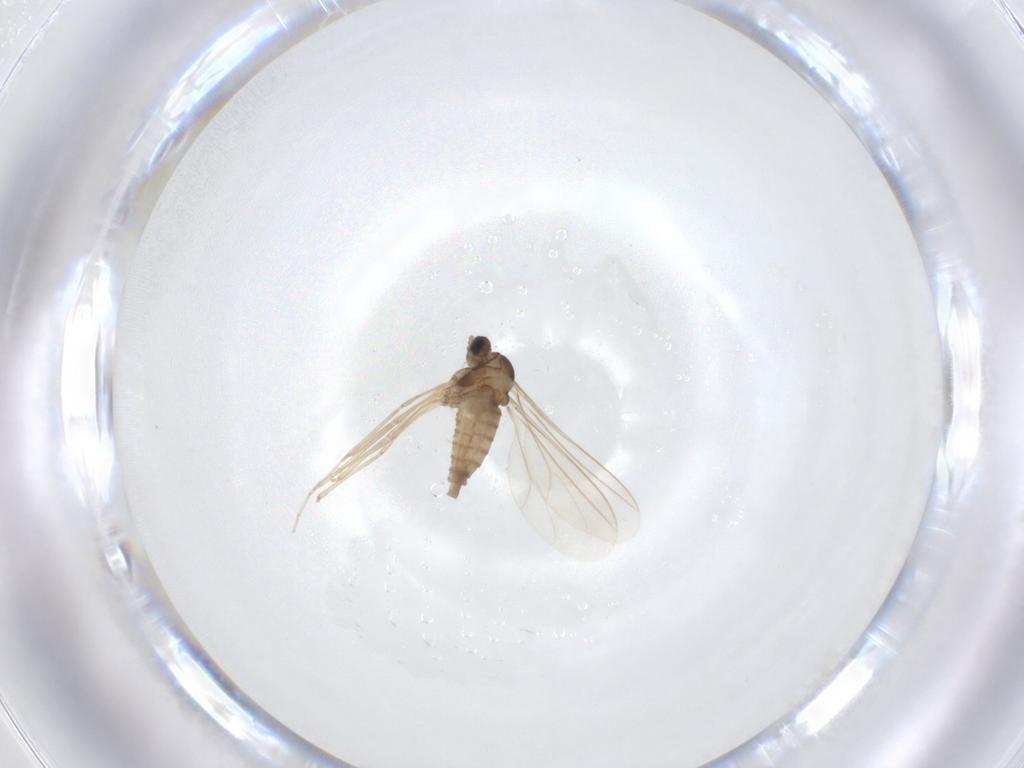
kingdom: Animalia
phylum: Arthropoda
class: Insecta
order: Diptera
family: Cecidomyiidae
